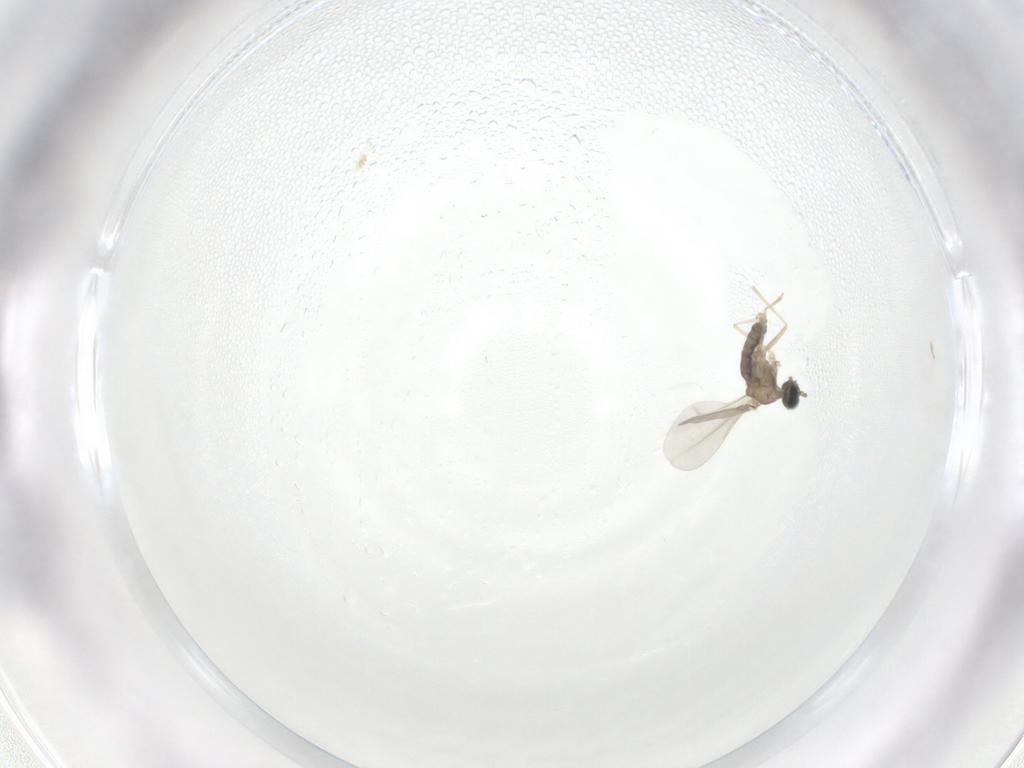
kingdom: Animalia
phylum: Arthropoda
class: Insecta
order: Diptera
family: Cecidomyiidae
